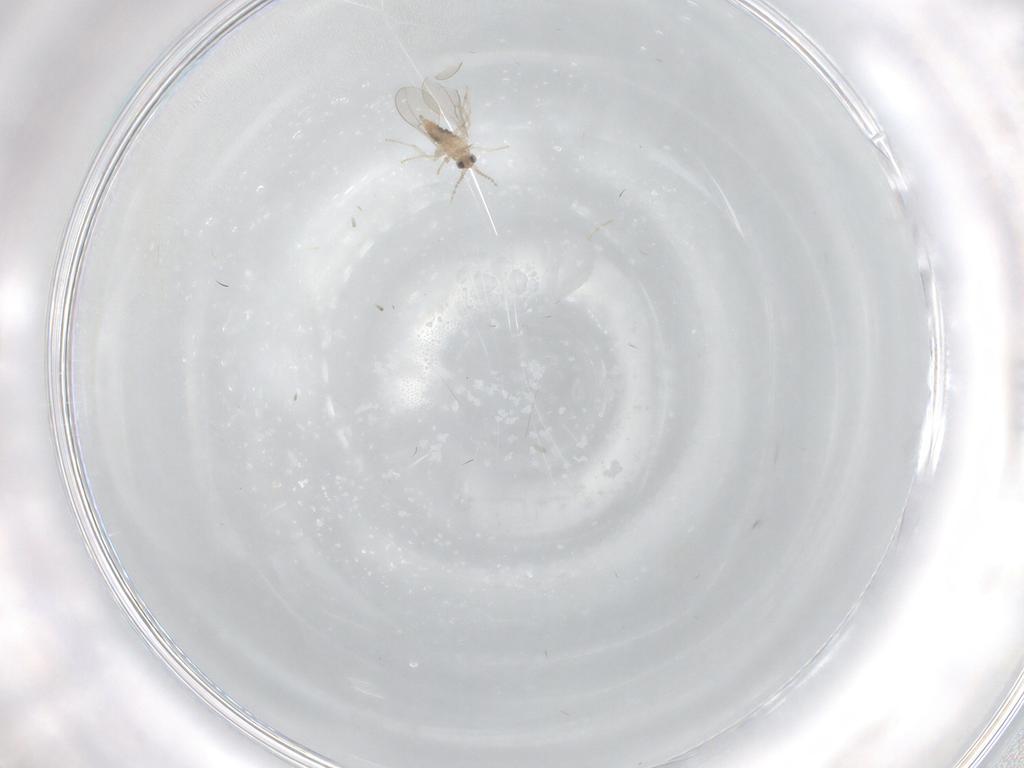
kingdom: Animalia
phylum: Arthropoda
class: Insecta
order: Diptera
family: Cecidomyiidae
